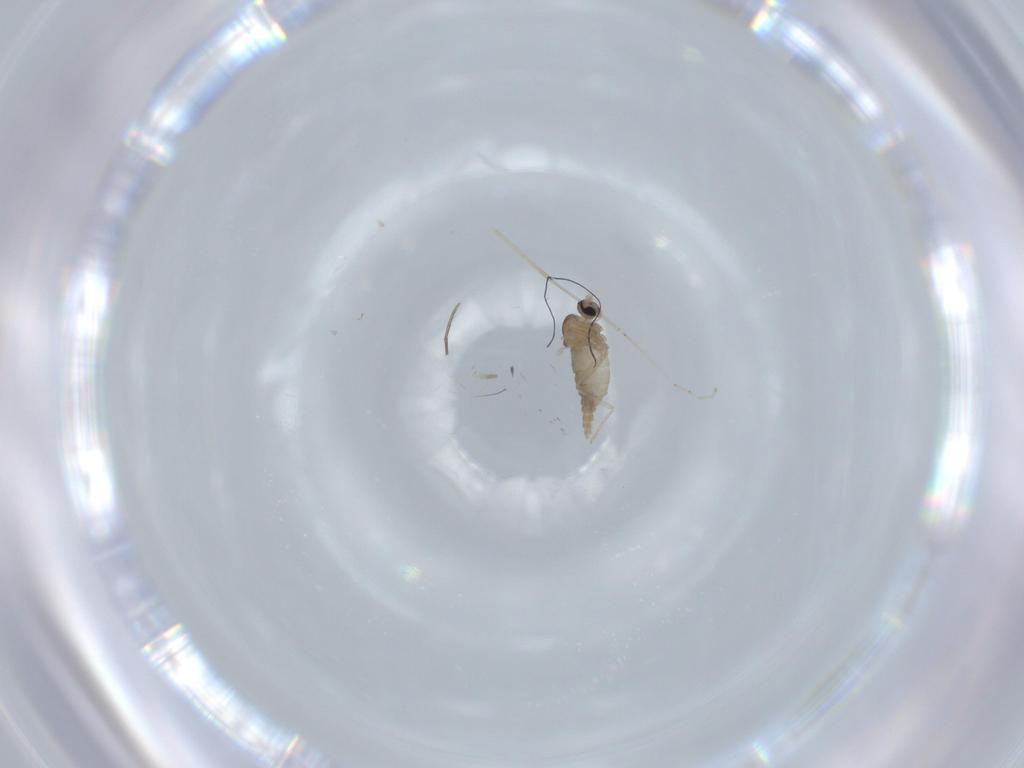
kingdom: Animalia
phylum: Arthropoda
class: Insecta
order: Diptera
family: Cecidomyiidae
